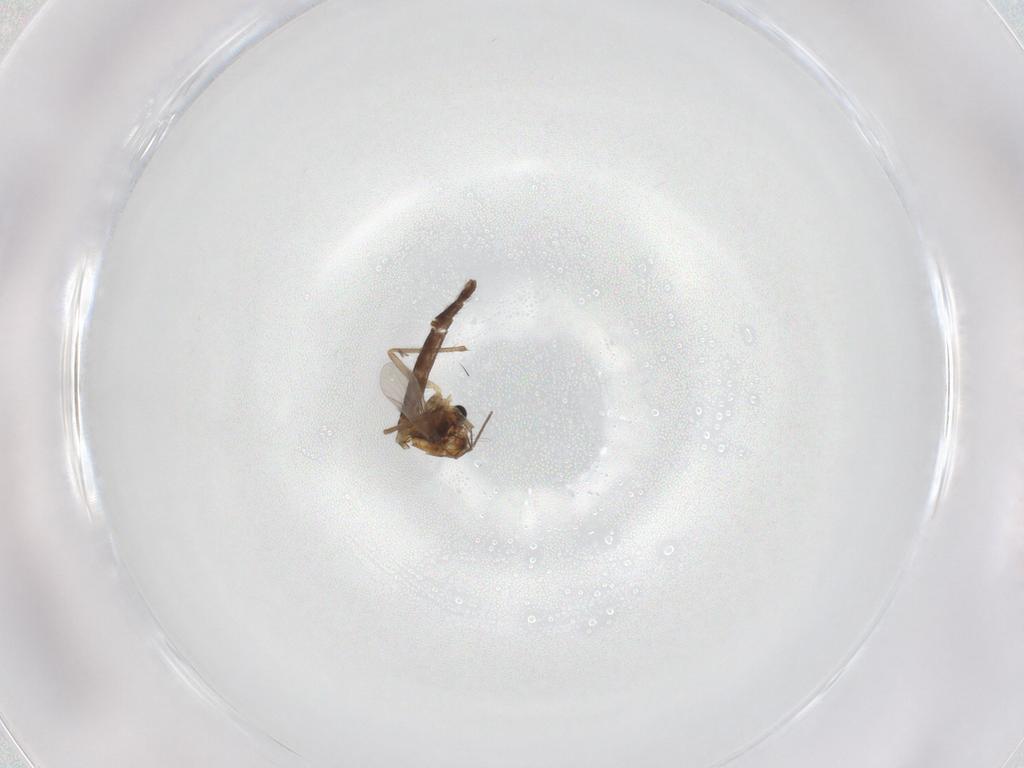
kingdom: Animalia
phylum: Arthropoda
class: Insecta
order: Diptera
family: Chironomidae
